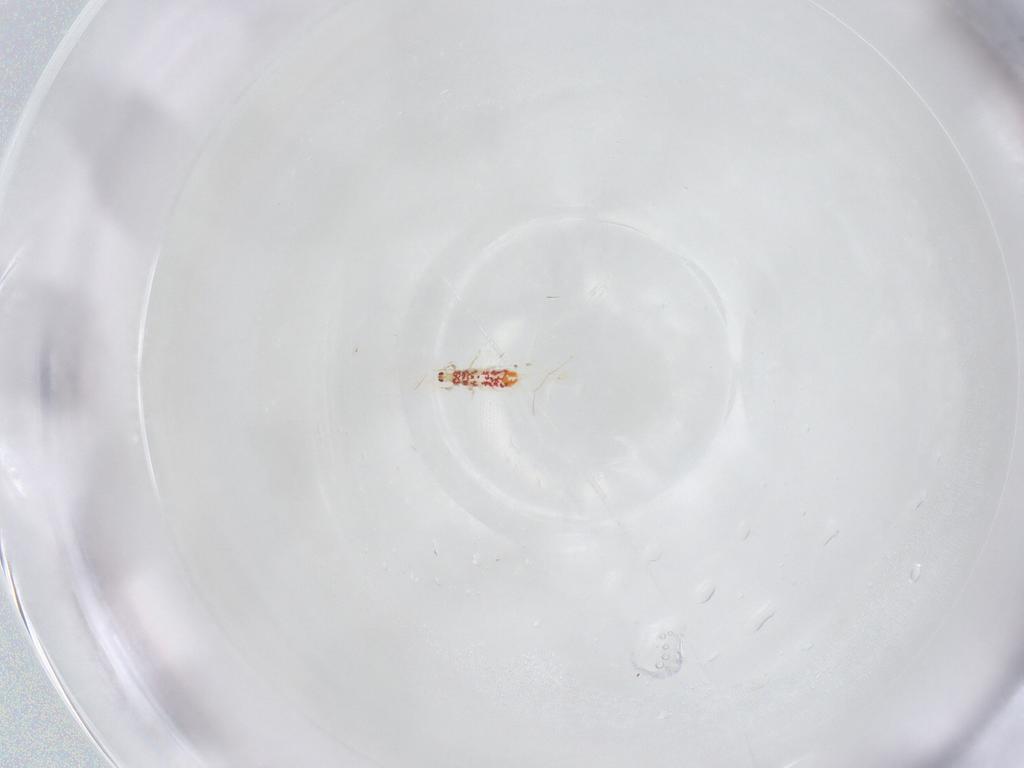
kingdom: Animalia
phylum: Arthropoda
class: Insecta
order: Thysanoptera
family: Phlaeothripidae
